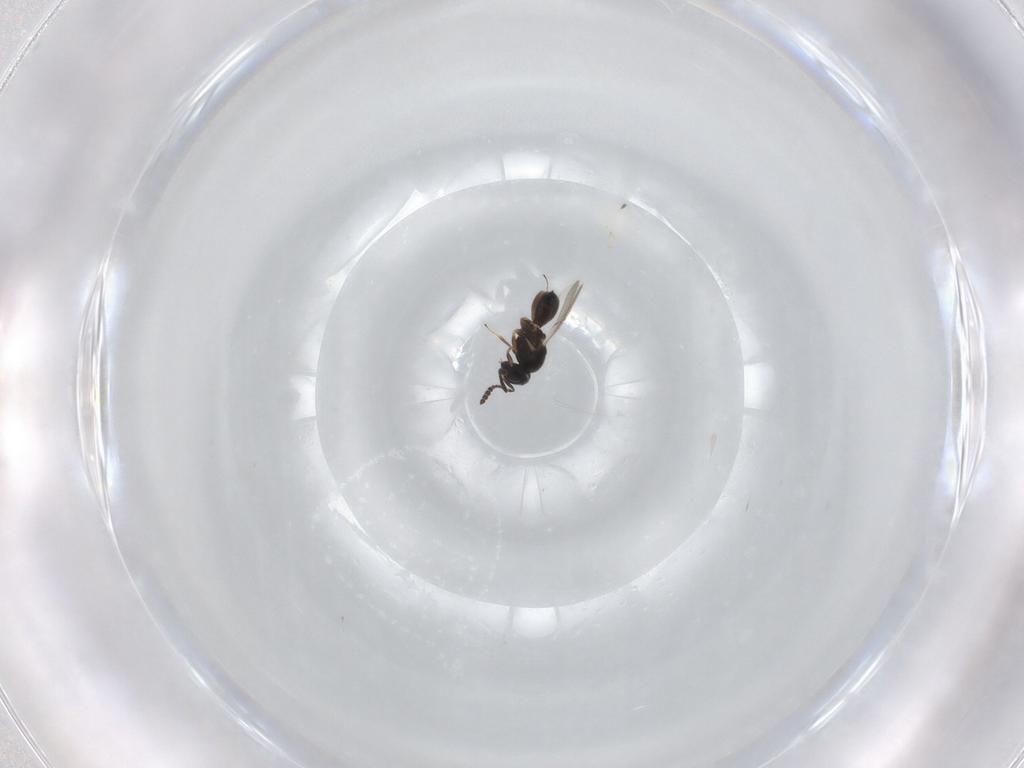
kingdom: Animalia
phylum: Arthropoda
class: Insecta
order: Hymenoptera
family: Scelionidae
